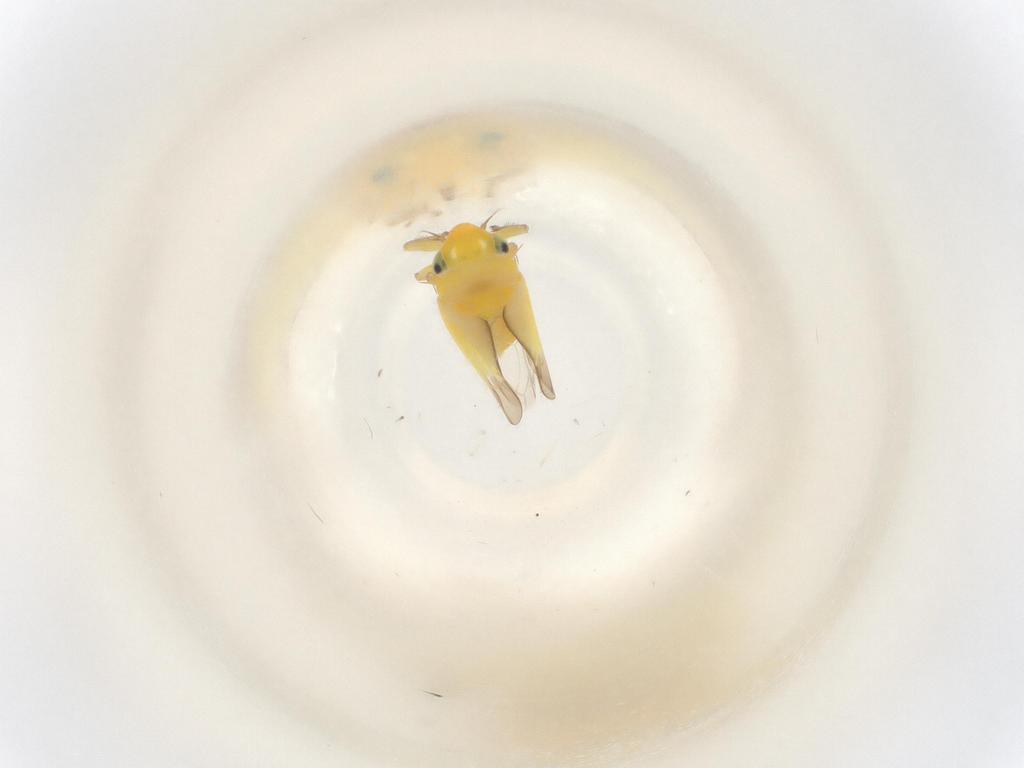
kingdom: Animalia
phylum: Arthropoda
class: Insecta
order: Hemiptera
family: Cicadellidae
